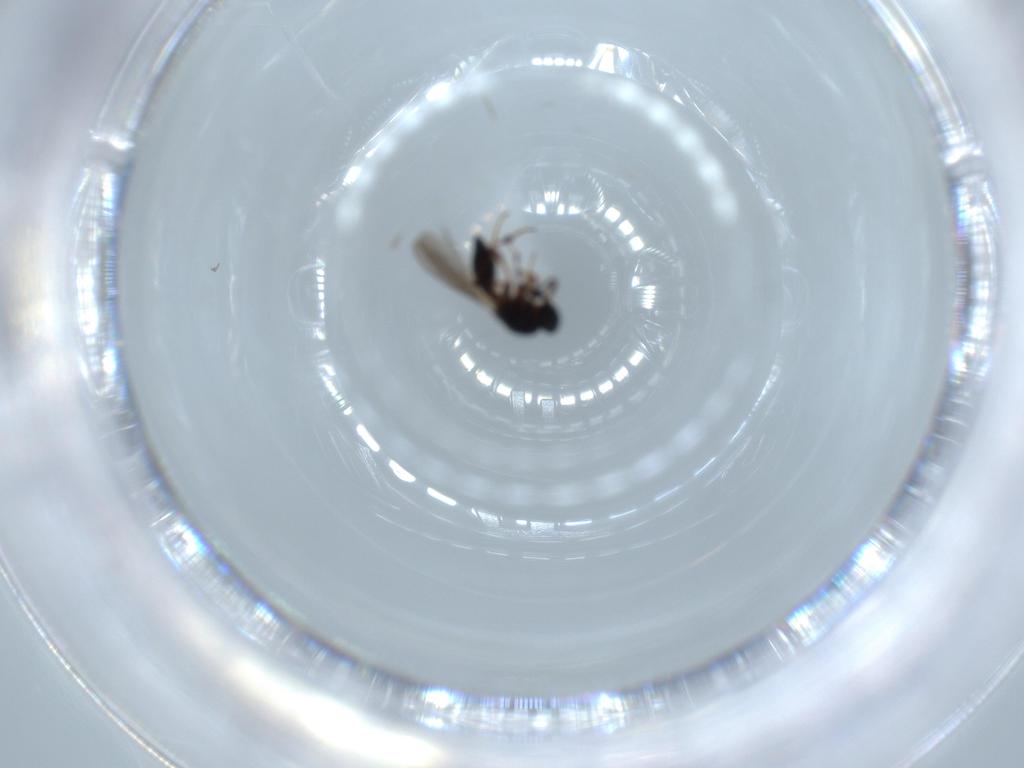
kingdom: Animalia
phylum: Arthropoda
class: Insecta
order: Hymenoptera
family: Platygastridae
